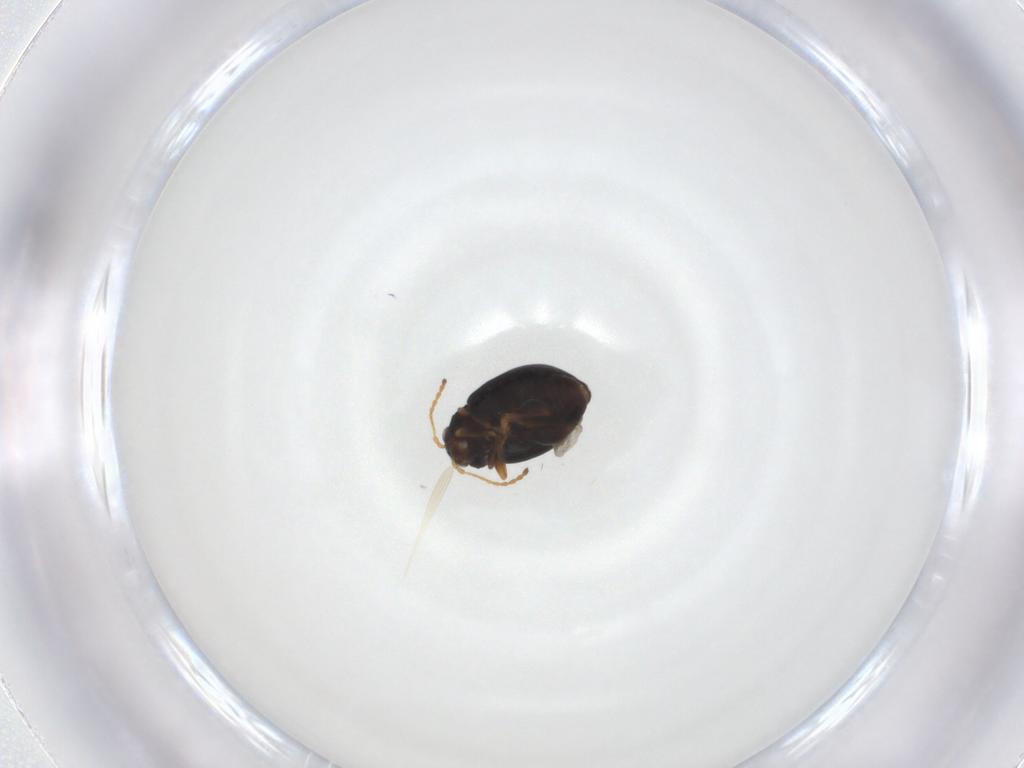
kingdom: Animalia
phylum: Arthropoda
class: Insecta
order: Coleoptera
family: Chrysomelidae
